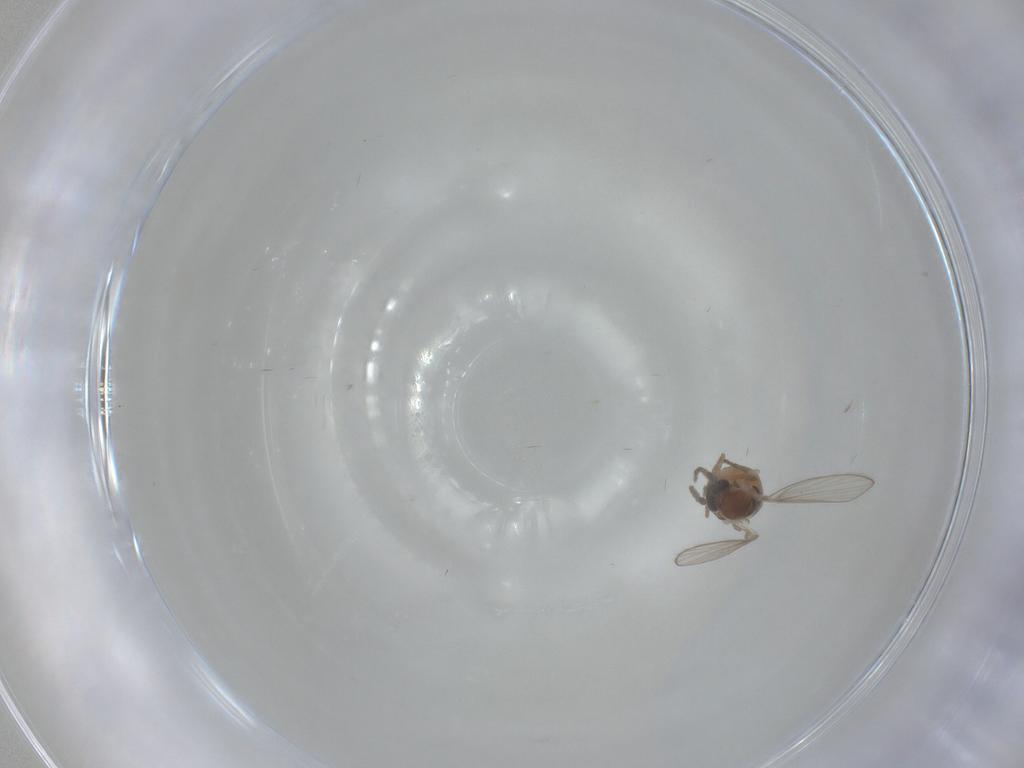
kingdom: Animalia
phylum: Arthropoda
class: Insecta
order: Diptera
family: Psychodidae
